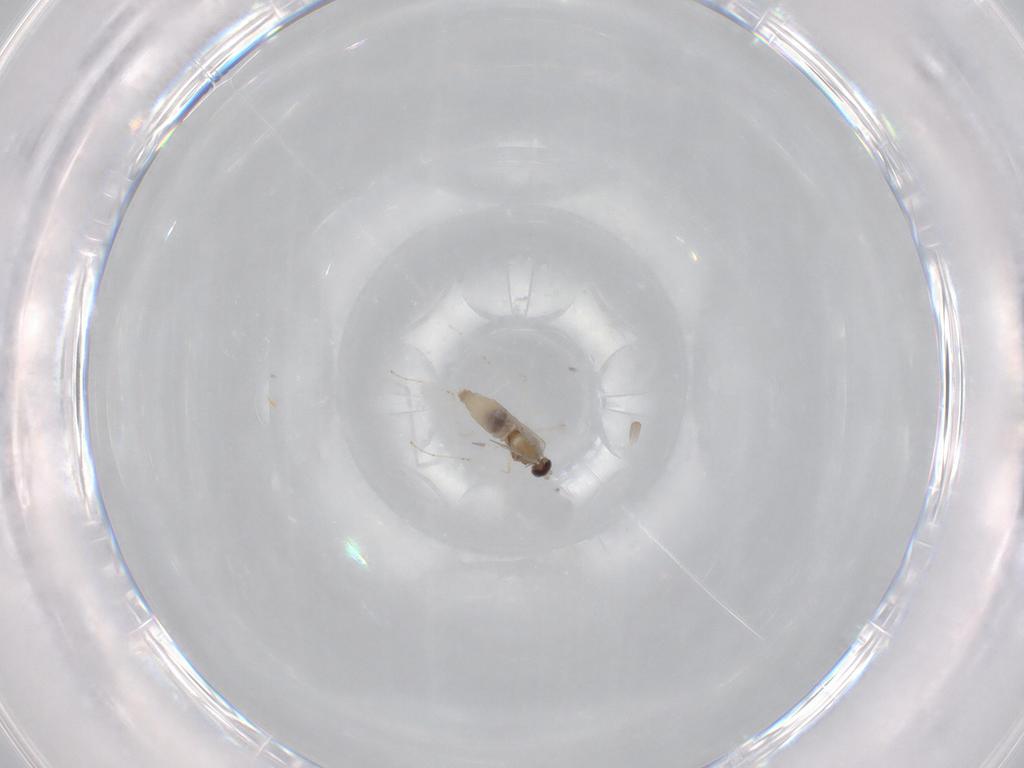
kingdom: Animalia
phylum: Arthropoda
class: Insecta
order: Diptera
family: Cecidomyiidae
